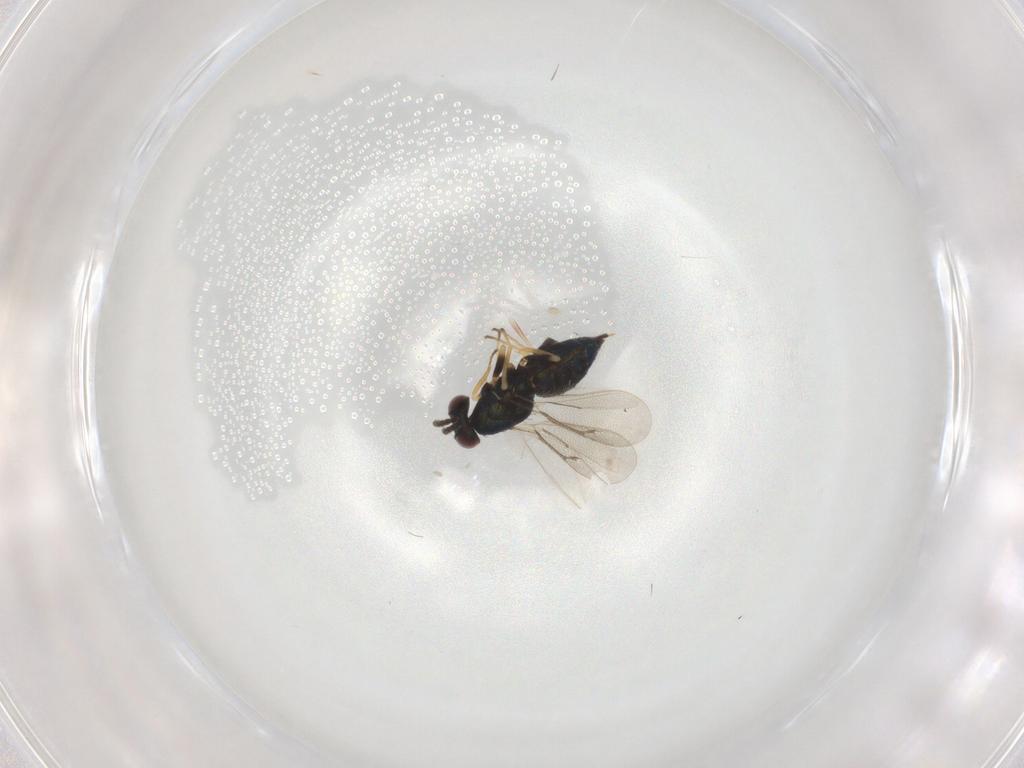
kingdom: Animalia
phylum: Arthropoda
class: Insecta
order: Hymenoptera
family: Eulophidae
